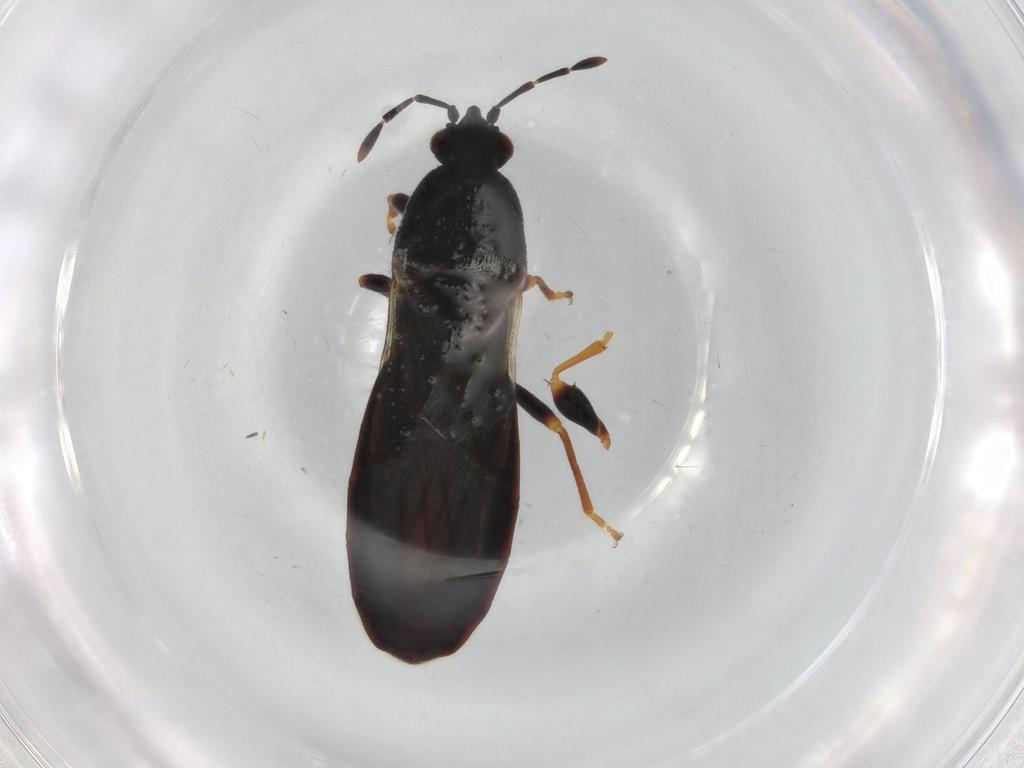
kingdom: Animalia
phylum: Arthropoda
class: Insecta
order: Hemiptera
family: Blissidae
